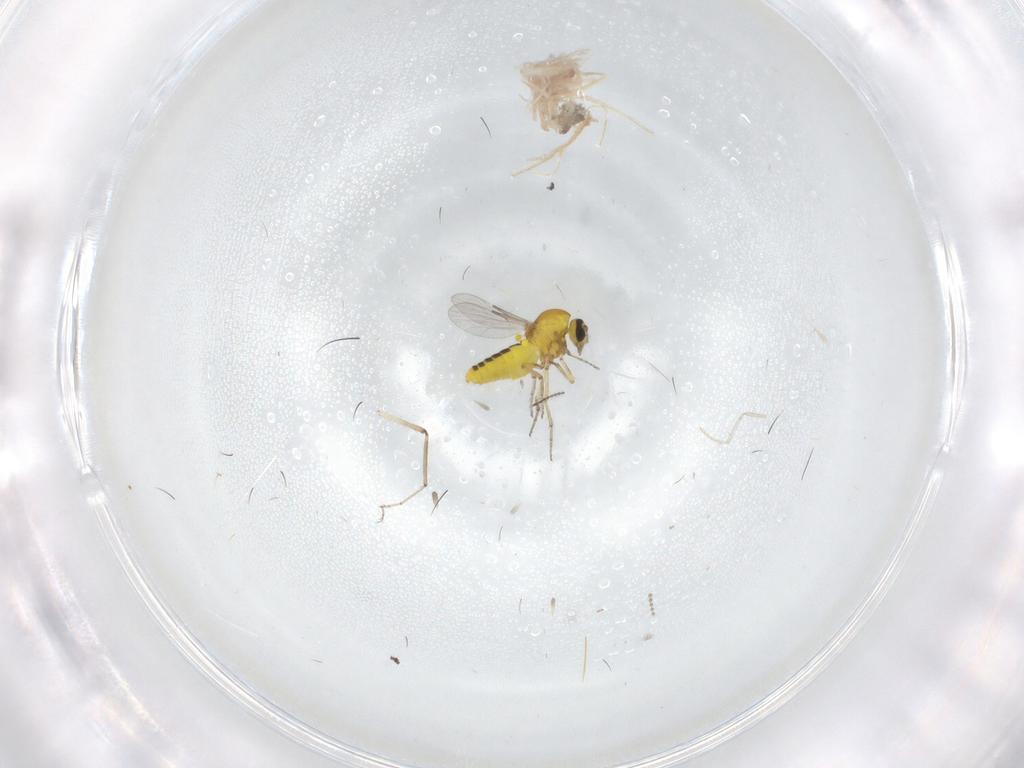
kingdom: Animalia
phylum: Arthropoda
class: Insecta
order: Diptera
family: Ceratopogonidae
